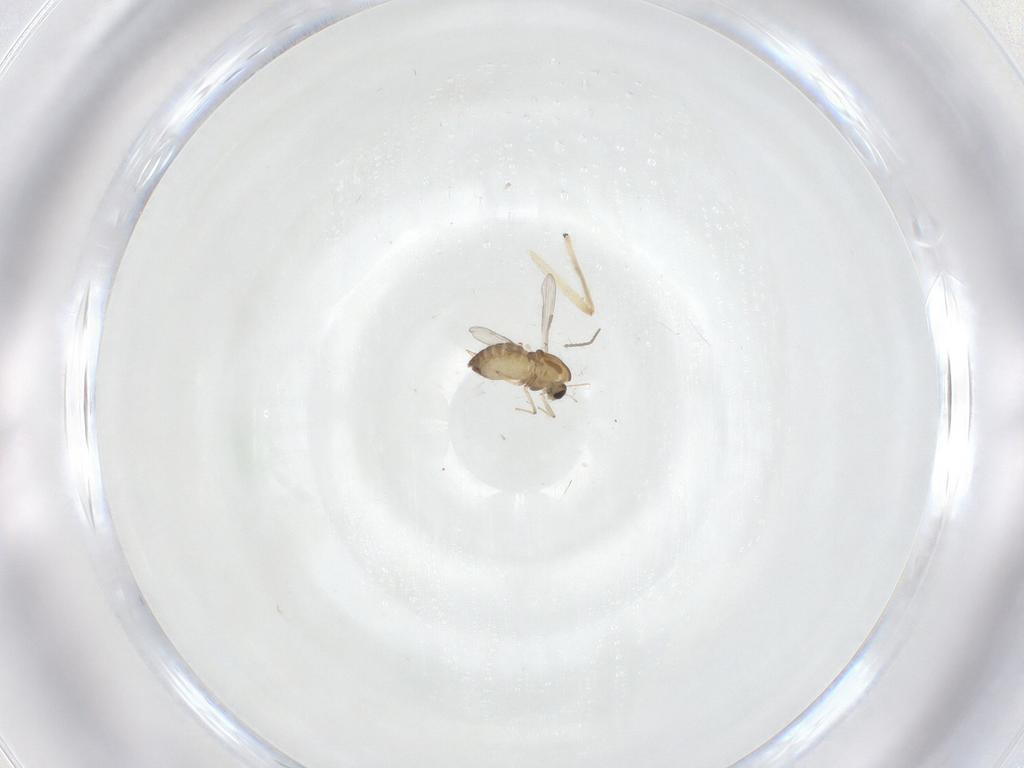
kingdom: Animalia
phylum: Arthropoda
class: Insecta
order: Diptera
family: Chironomidae
